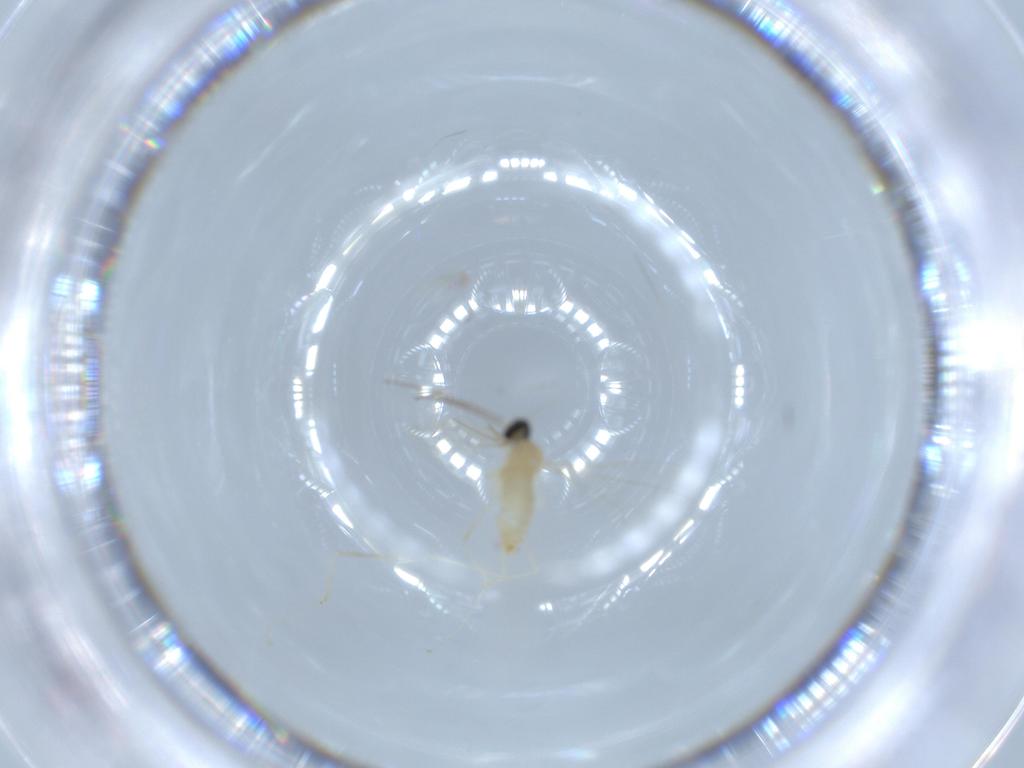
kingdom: Animalia
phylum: Arthropoda
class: Insecta
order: Diptera
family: Cecidomyiidae
